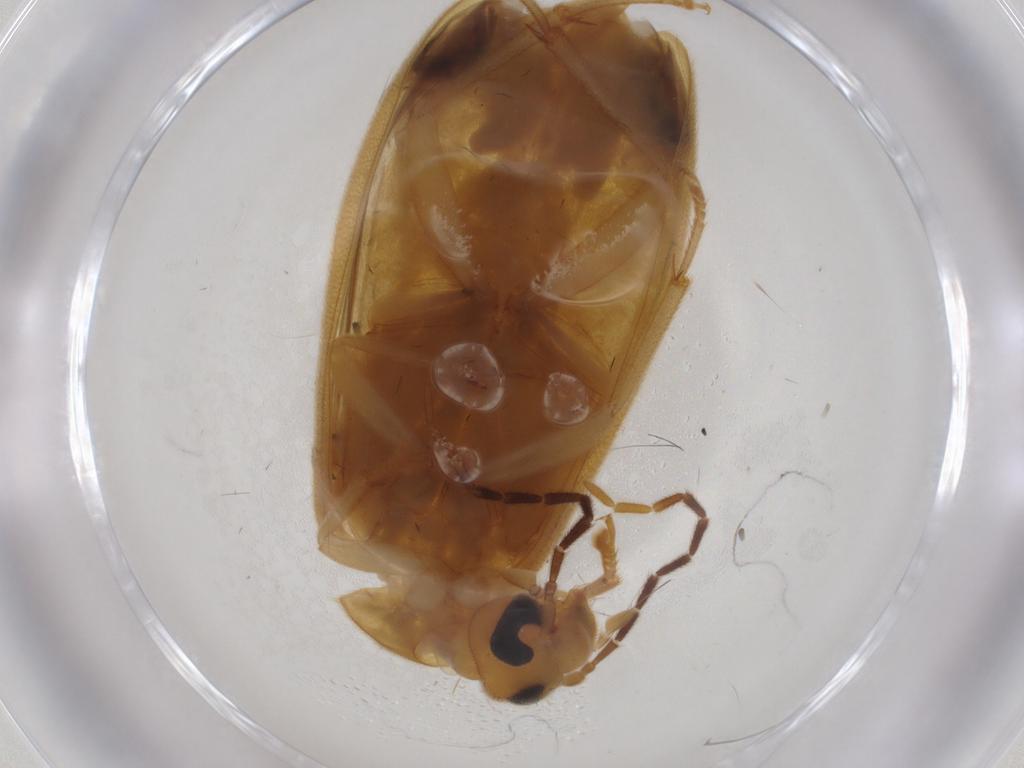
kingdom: Animalia
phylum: Arthropoda
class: Insecta
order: Coleoptera
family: Scraptiidae
